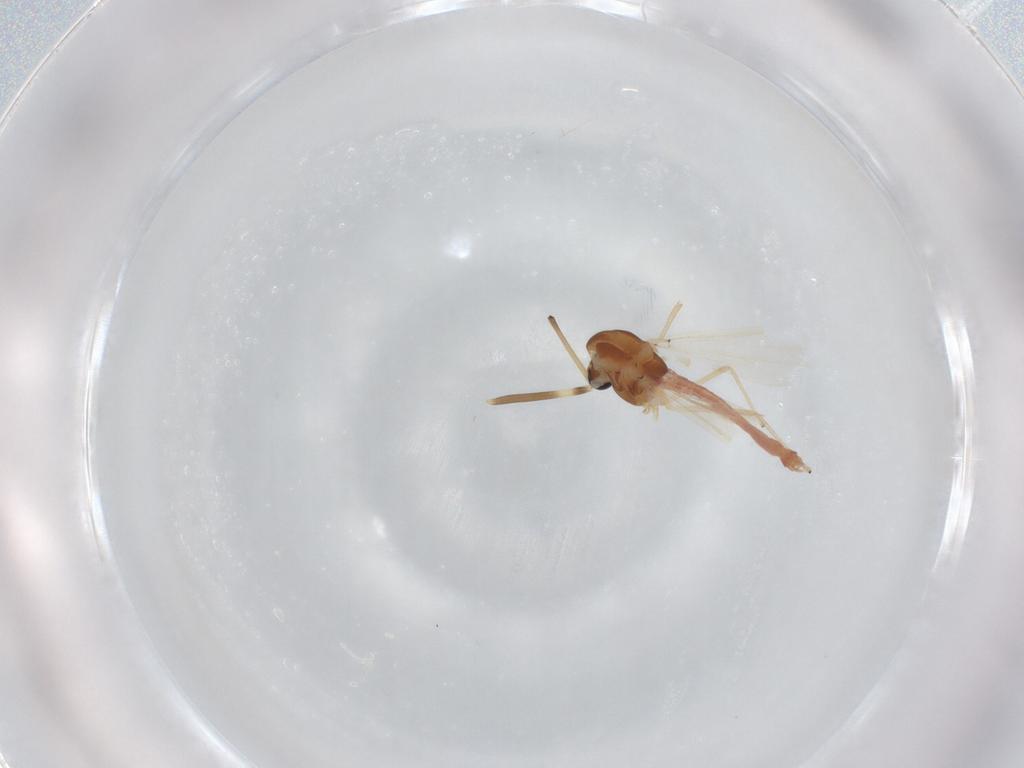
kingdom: Animalia
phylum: Arthropoda
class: Insecta
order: Diptera
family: Chironomidae
